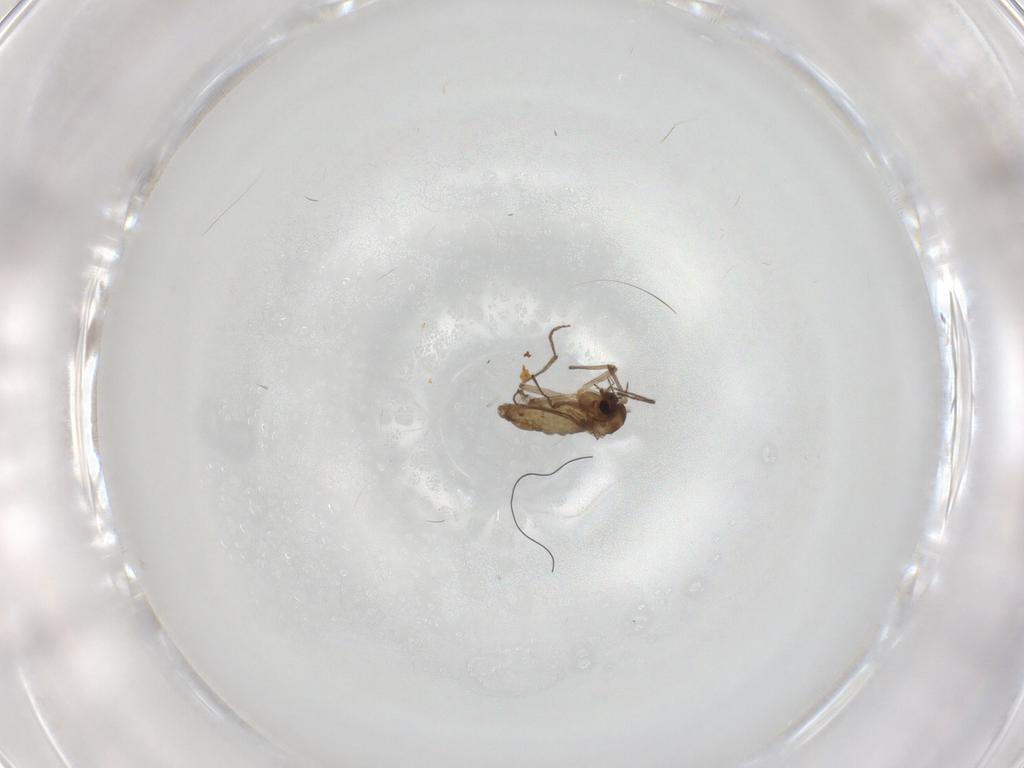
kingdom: Animalia
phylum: Arthropoda
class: Insecta
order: Diptera
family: Chironomidae
